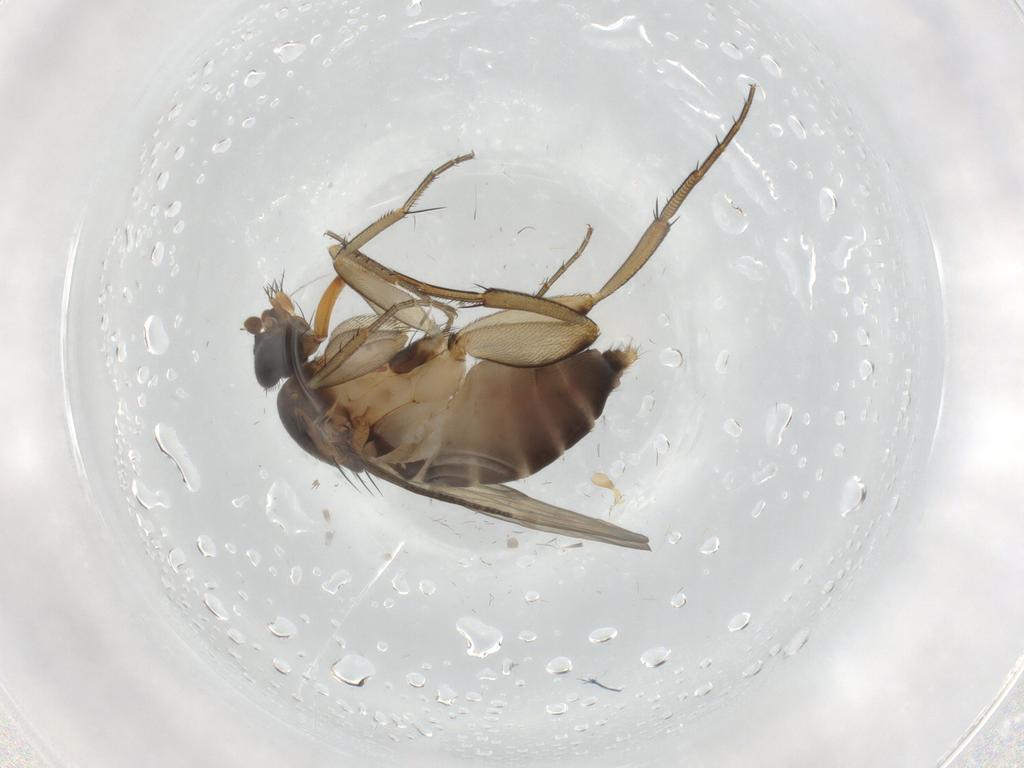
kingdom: Animalia
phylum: Arthropoda
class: Insecta
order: Diptera
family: Phoridae
